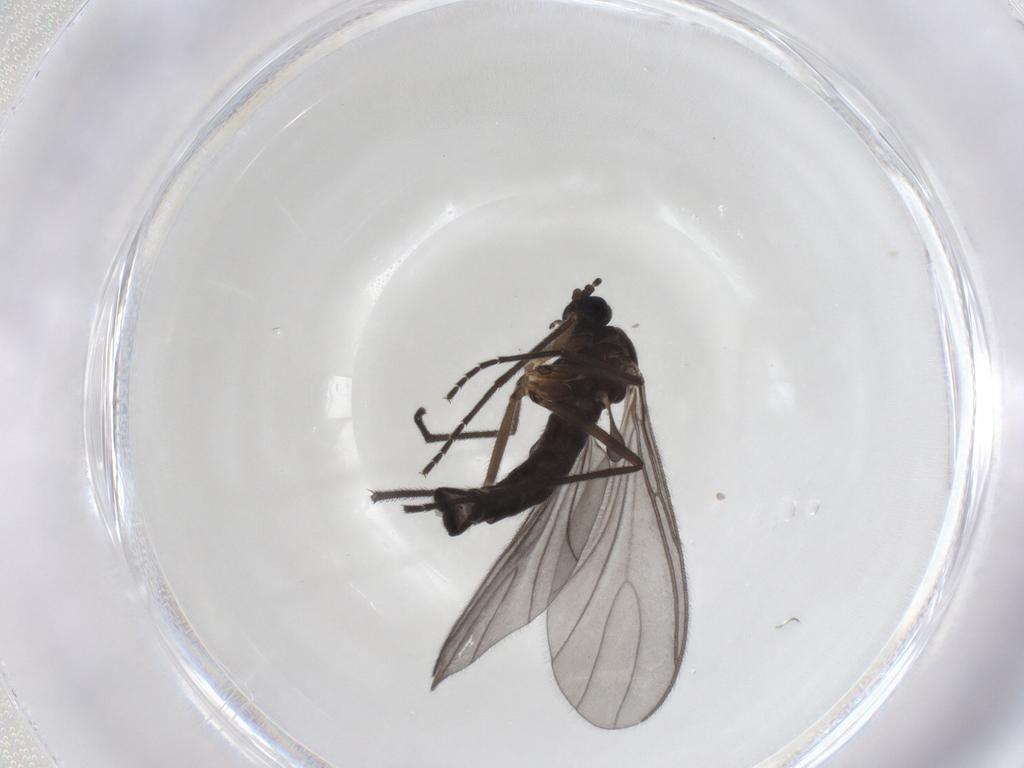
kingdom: Animalia
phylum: Arthropoda
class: Insecta
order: Diptera
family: Sciaridae
